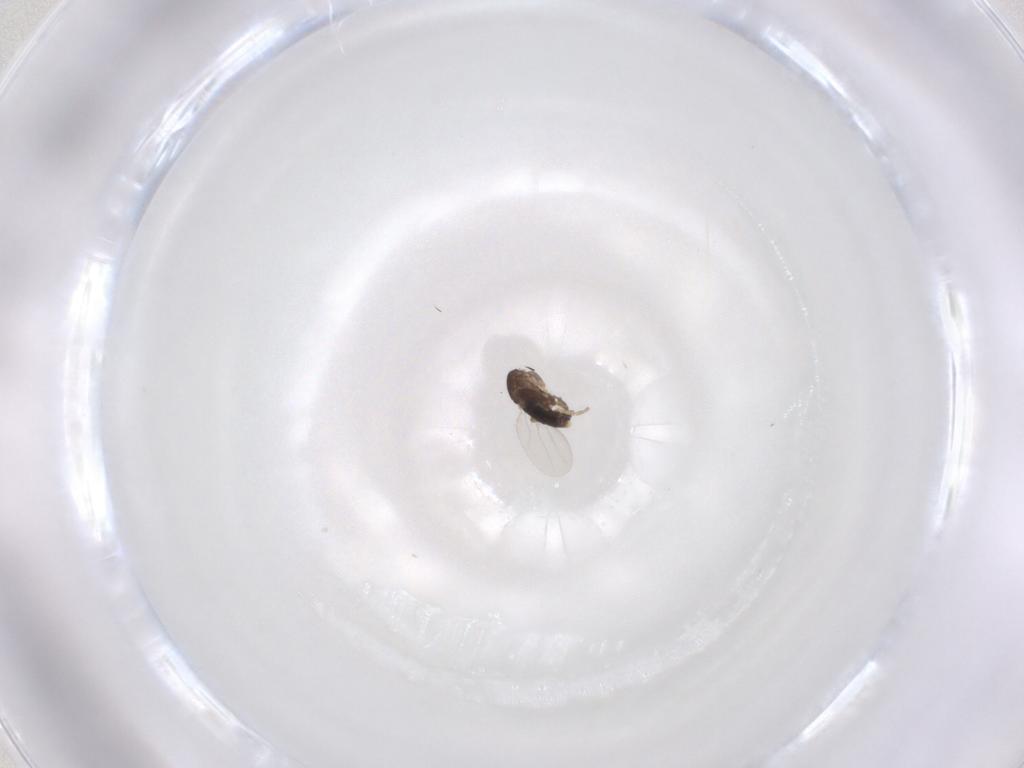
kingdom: Animalia
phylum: Arthropoda
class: Insecta
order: Diptera
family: Phoridae
